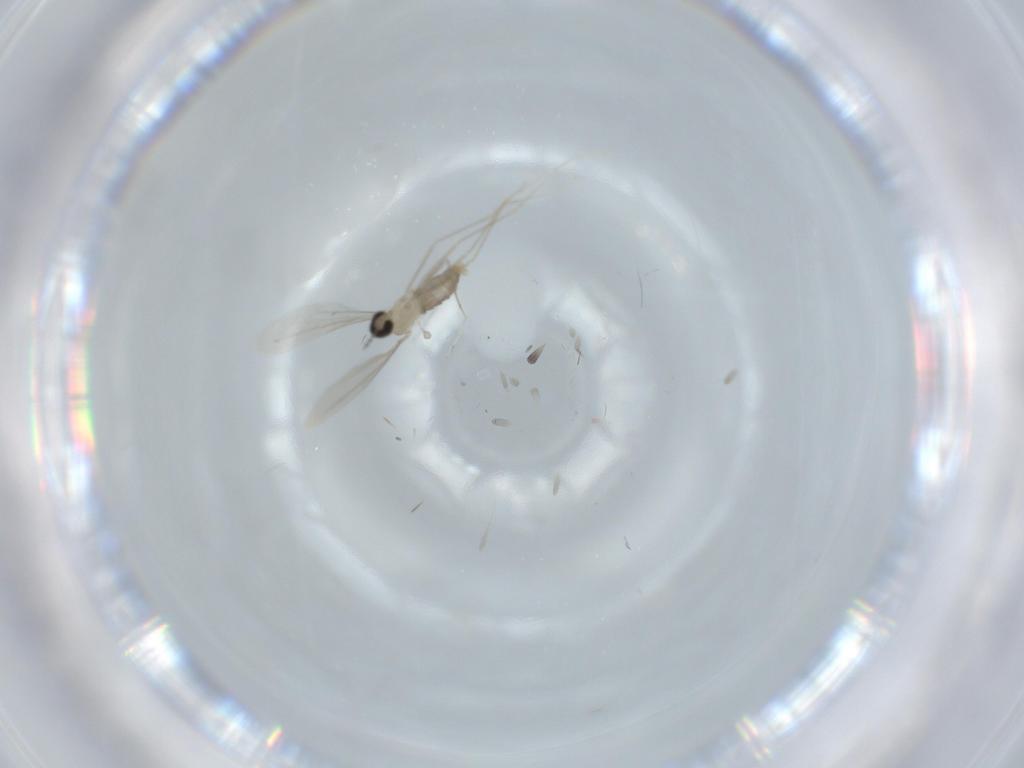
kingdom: Animalia
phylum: Arthropoda
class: Insecta
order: Diptera
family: Cecidomyiidae
